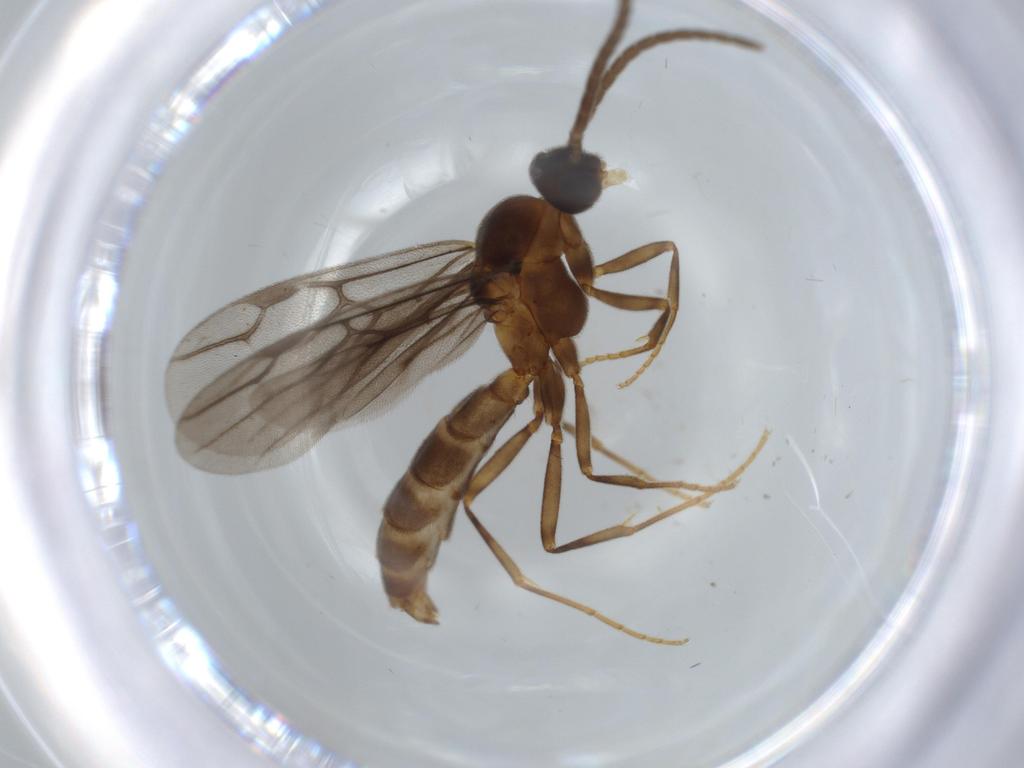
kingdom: Animalia
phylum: Arthropoda
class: Insecta
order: Hymenoptera
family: Formicidae
